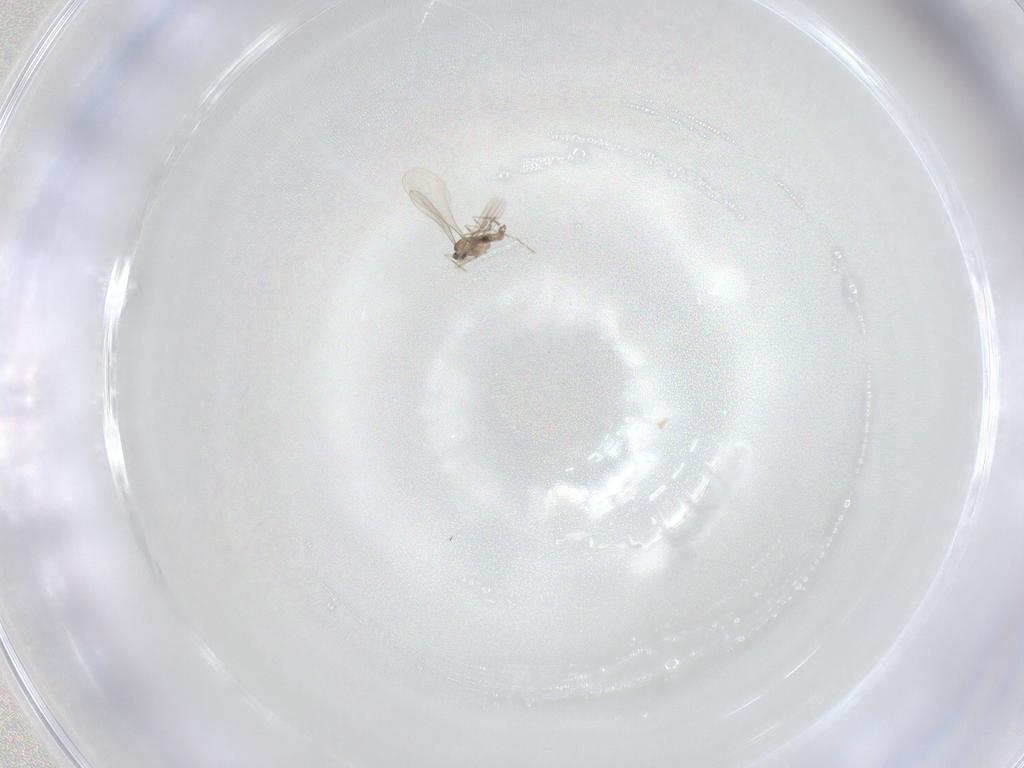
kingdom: Animalia
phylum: Arthropoda
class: Insecta
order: Diptera
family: Cecidomyiidae
